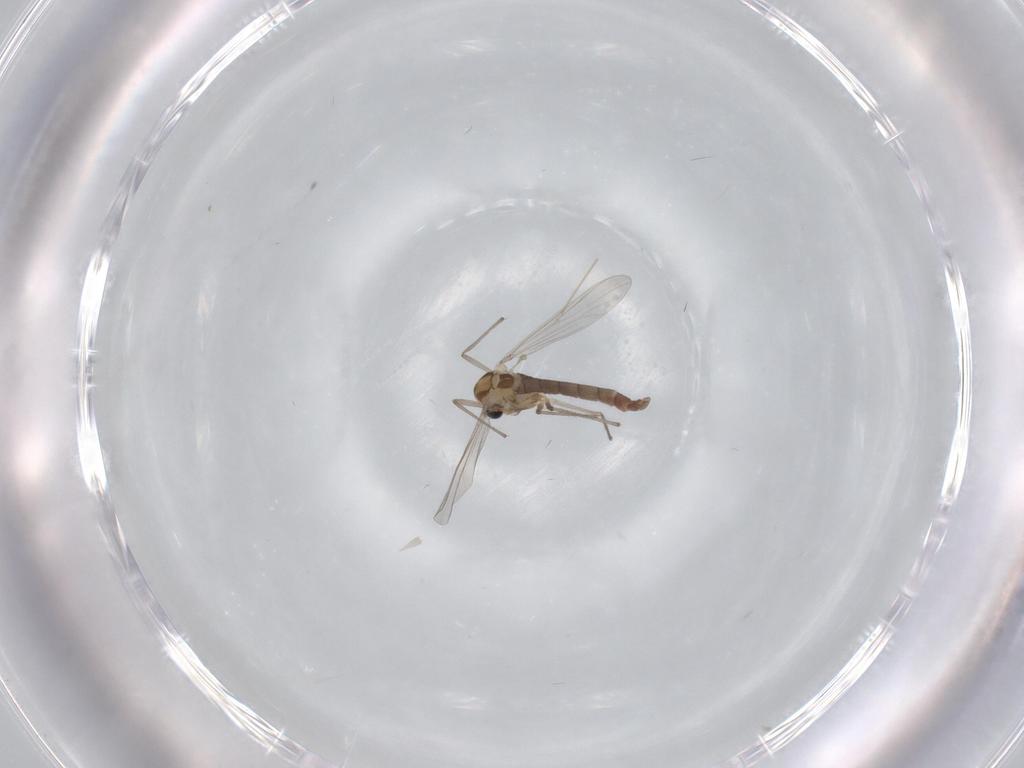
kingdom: Animalia
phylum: Arthropoda
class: Insecta
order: Diptera
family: Chironomidae
